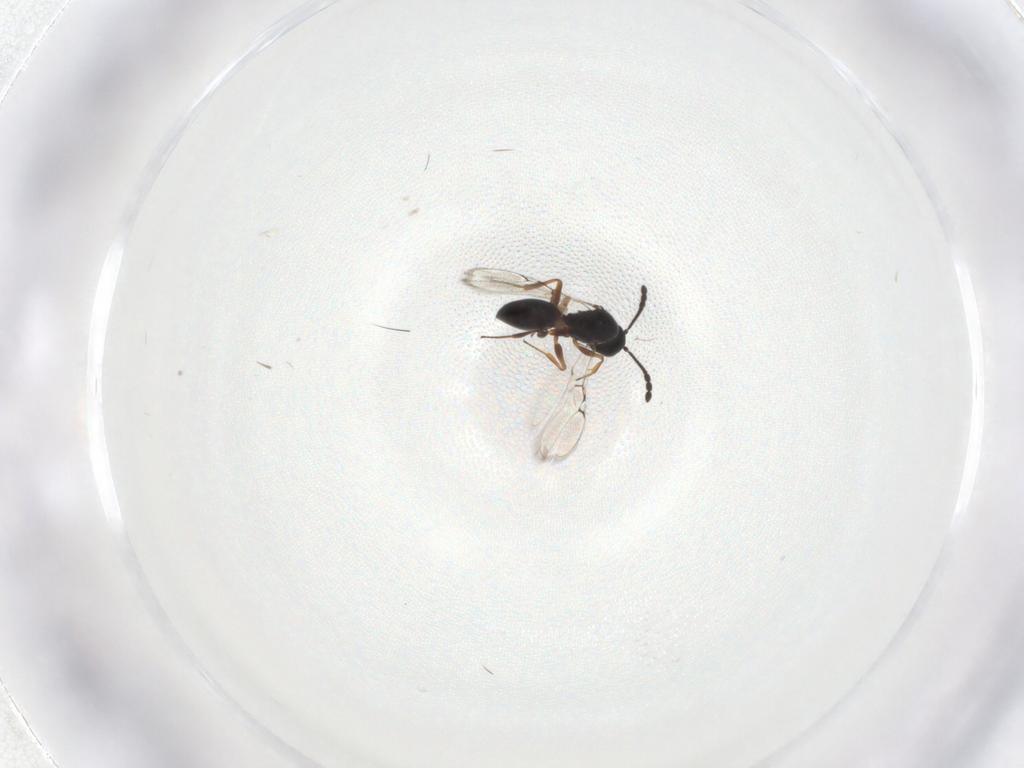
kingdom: Animalia
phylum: Arthropoda
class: Insecta
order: Hymenoptera
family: Figitidae
